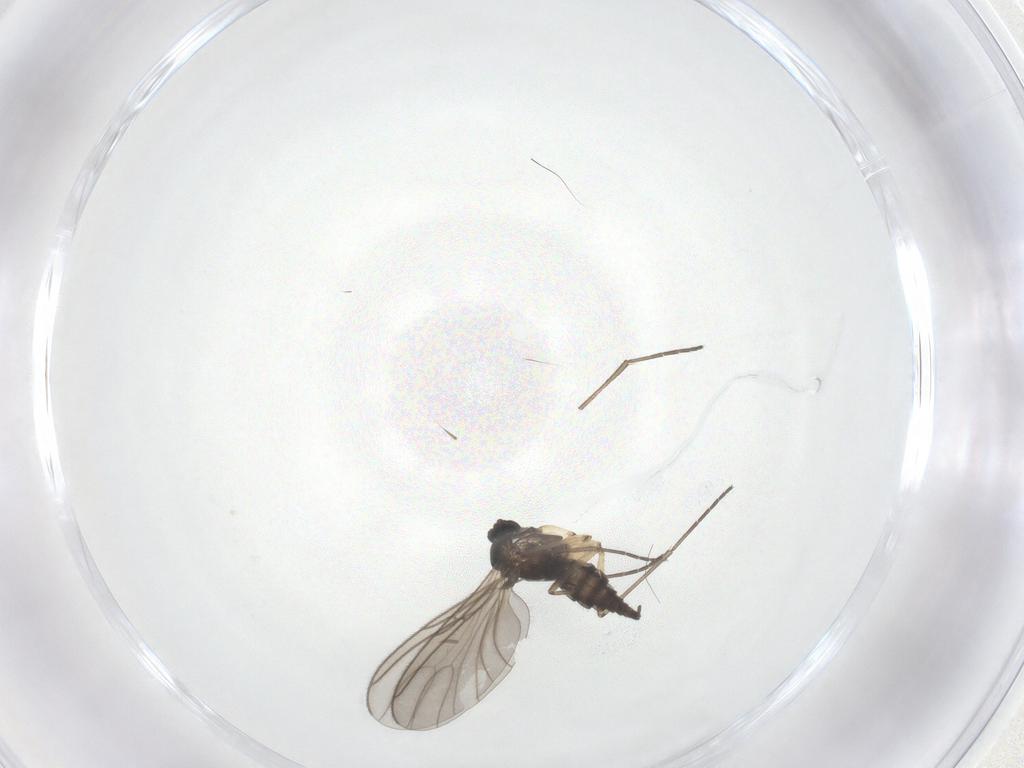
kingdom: Animalia
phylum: Arthropoda
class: Insecta
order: Diptera
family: Sciaridae
